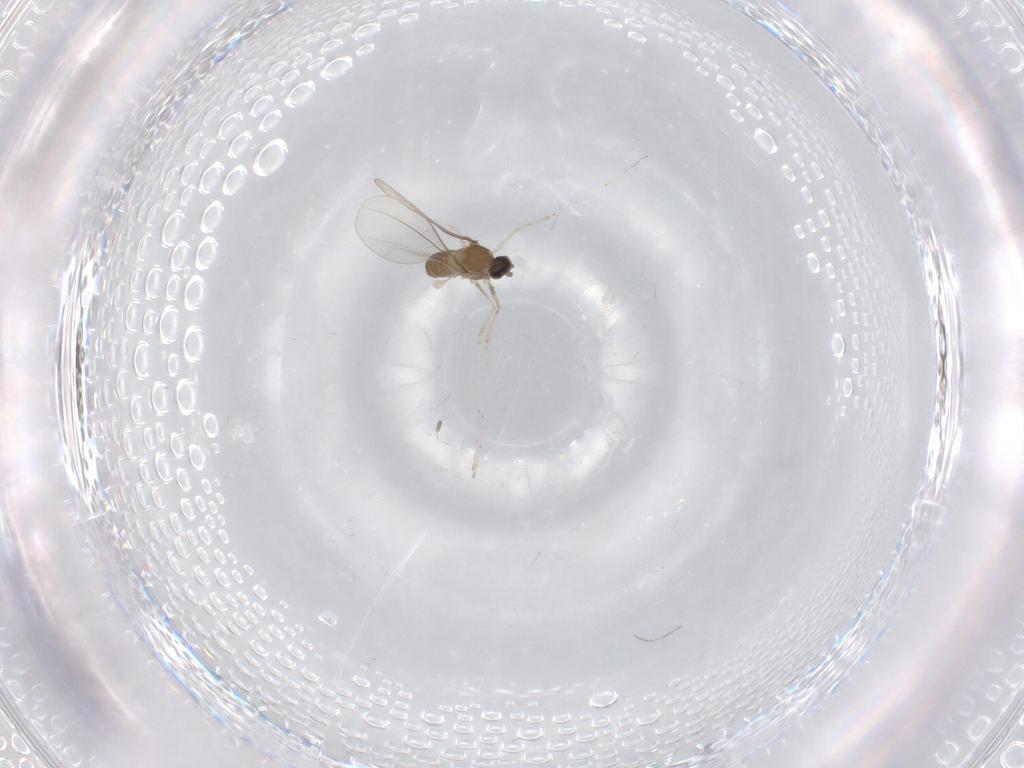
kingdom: Animalia
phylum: Arthropoda
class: Insecta
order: Diptera
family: Cecidomyiidae
